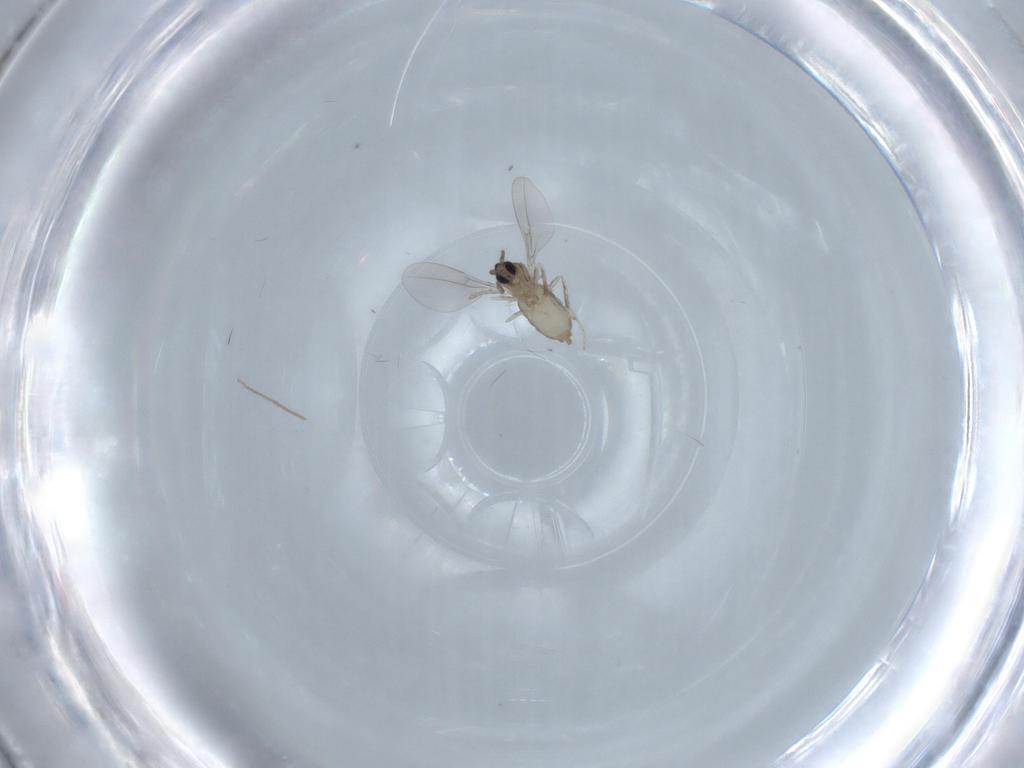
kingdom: Animalia
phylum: Arthropoda
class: Insecta
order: Diptera
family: Cecidomyiidae
